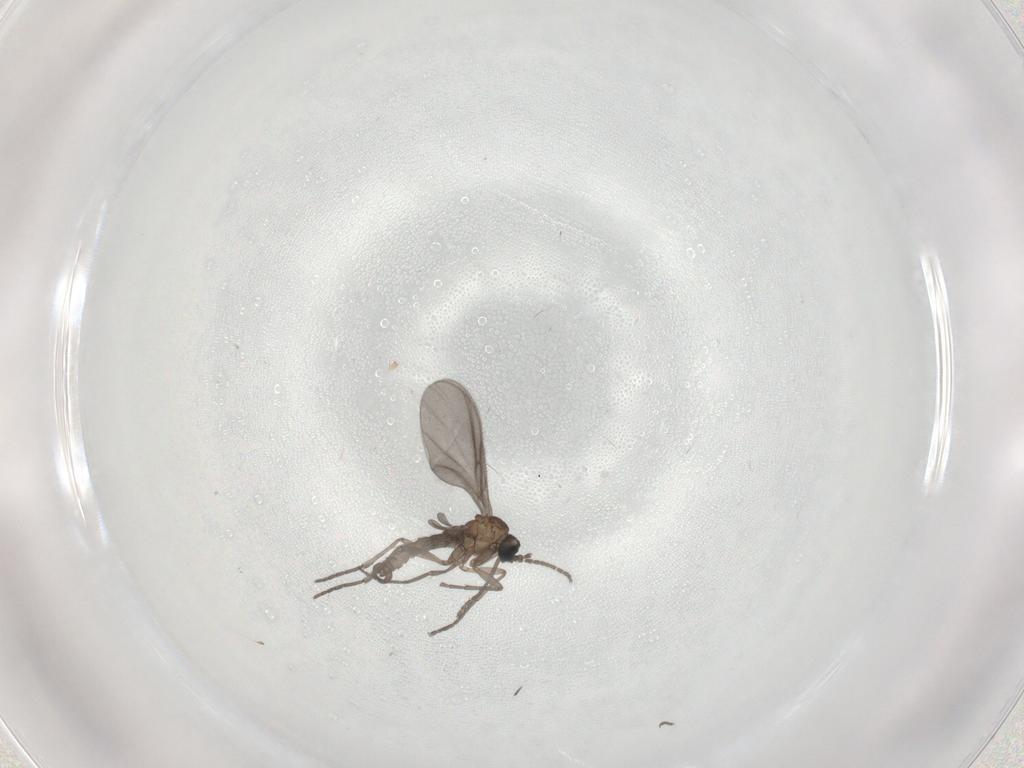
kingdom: Animalia
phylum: Arthropoda
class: Insecta
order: Diptera
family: Sciaridae
